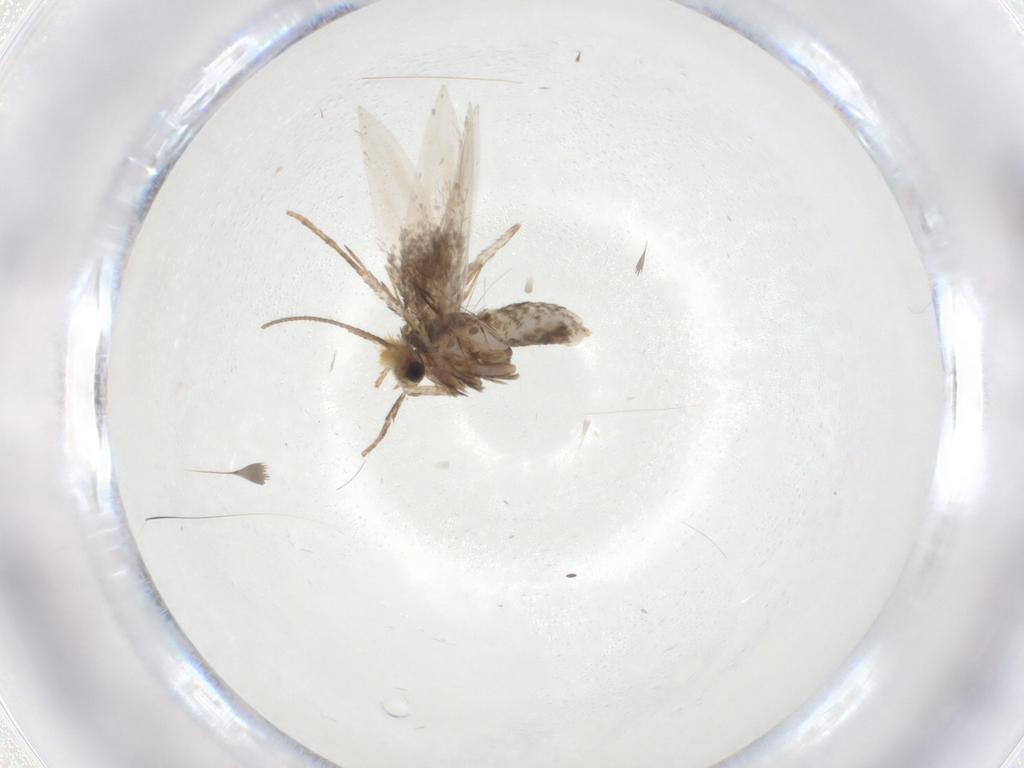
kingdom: Animalia
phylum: Arthropoda
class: Insecta
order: Lepidoptera
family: Nepticulidae
